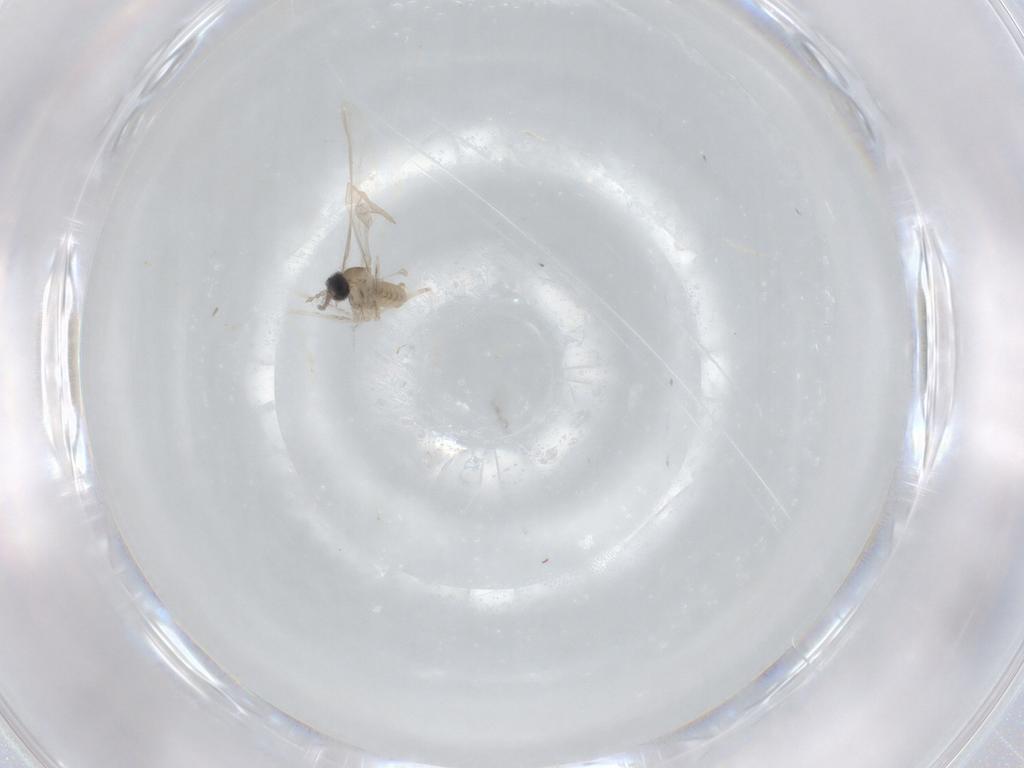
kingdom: Animalia
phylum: Arthropoda
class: Insecta
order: Diptera
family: Cecidomyiidae
